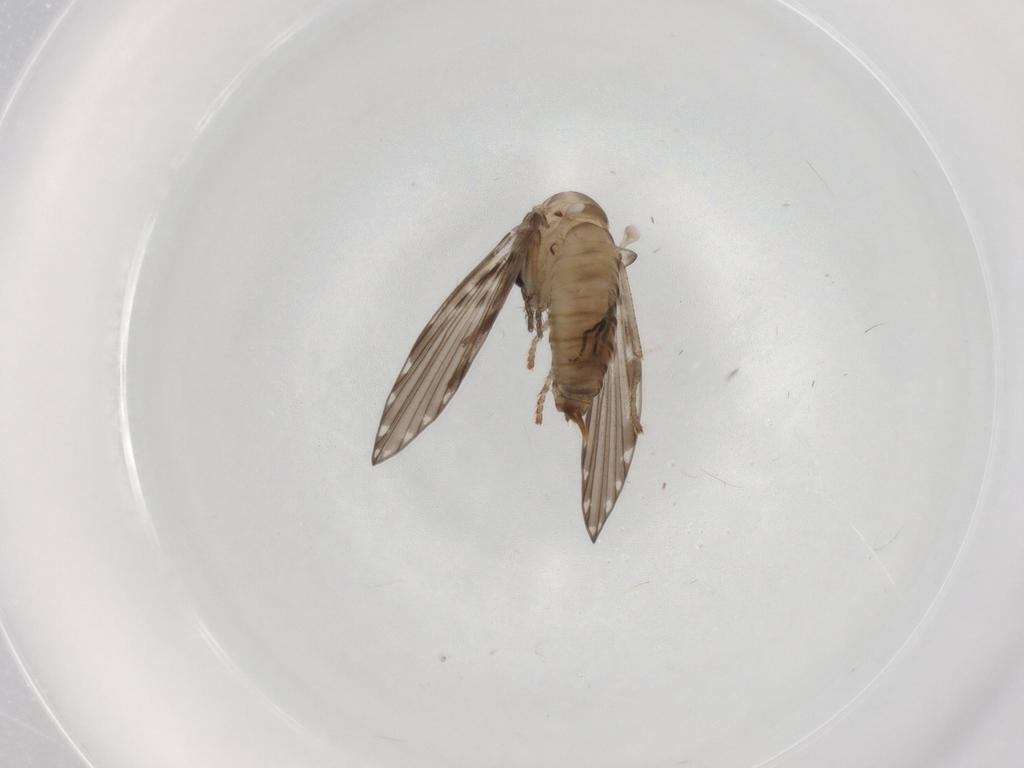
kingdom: Animalia
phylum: Arthropoda
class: Insecta
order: Diptera
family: Psychodidae
